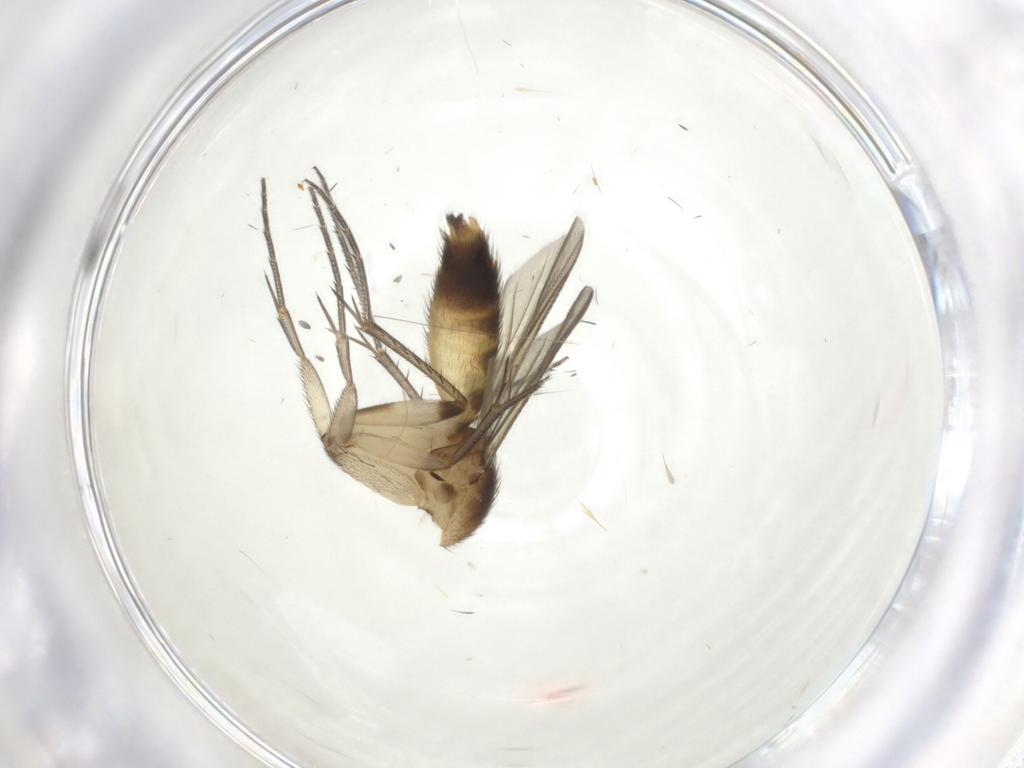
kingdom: Animalia
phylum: Arthropoda
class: Insecta
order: Diptera
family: Mycetophilidae
